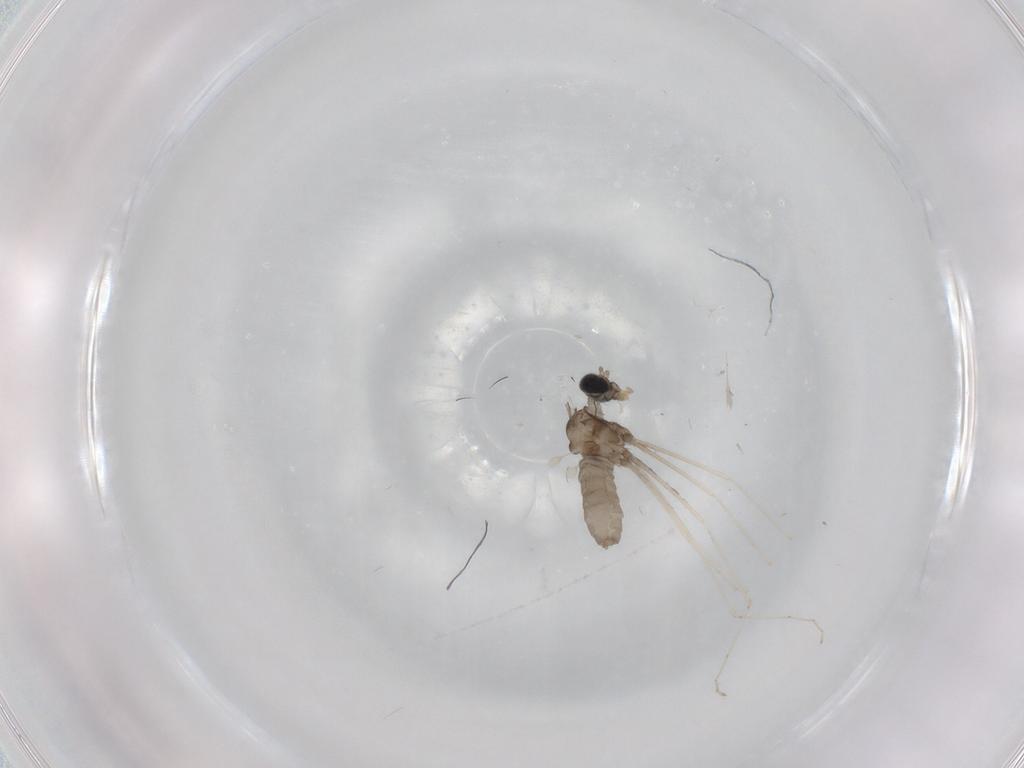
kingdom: Animalia
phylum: Arthropoda
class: Insecta
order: Diptera
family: Cecidomyiidae
